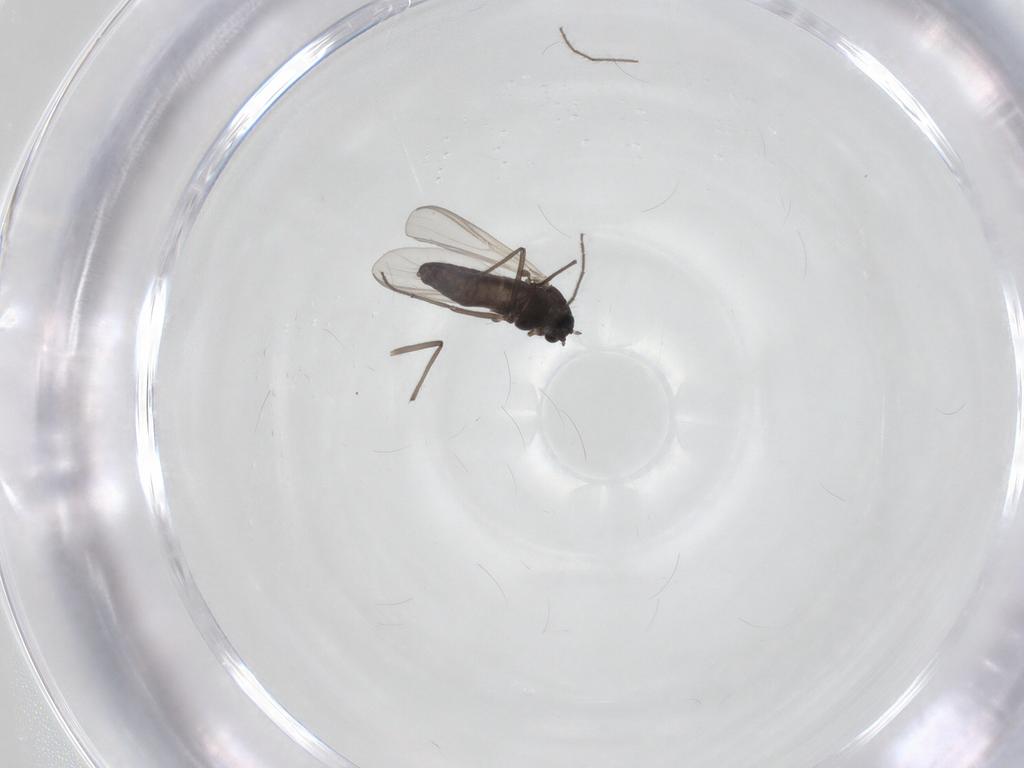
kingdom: Animalia
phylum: Arthropoda
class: Insecta
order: Diptera
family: Chironomidae
